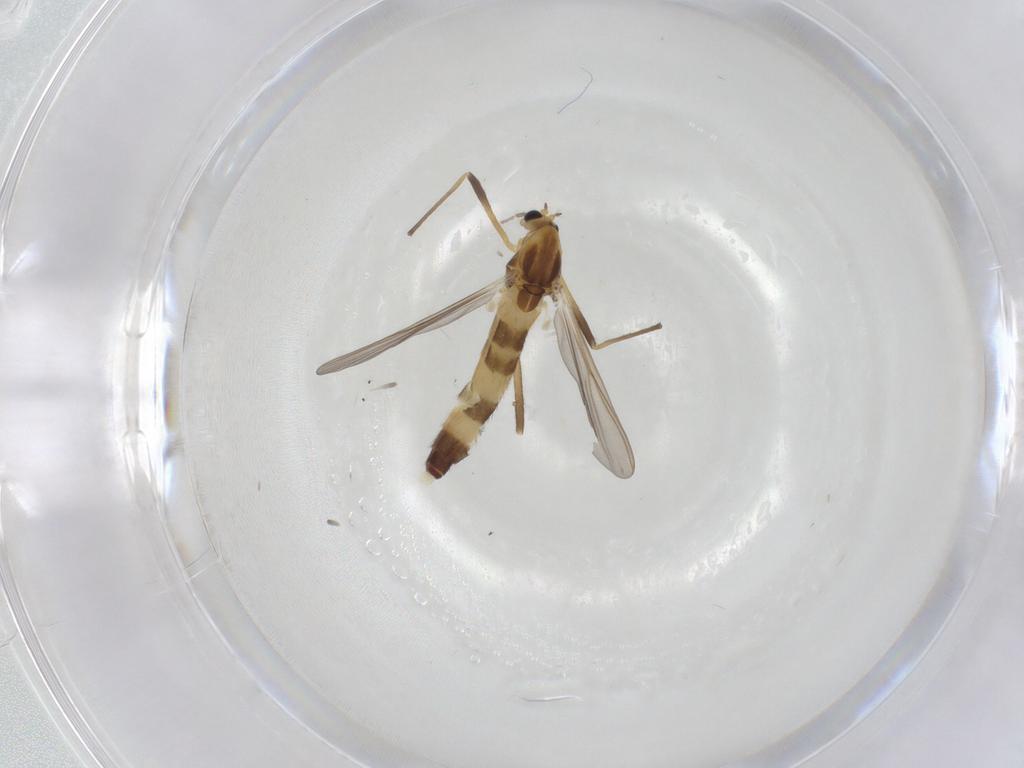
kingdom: Animalia
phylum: Arthropoda
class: Insecta
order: Diptera
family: Chironomidae
